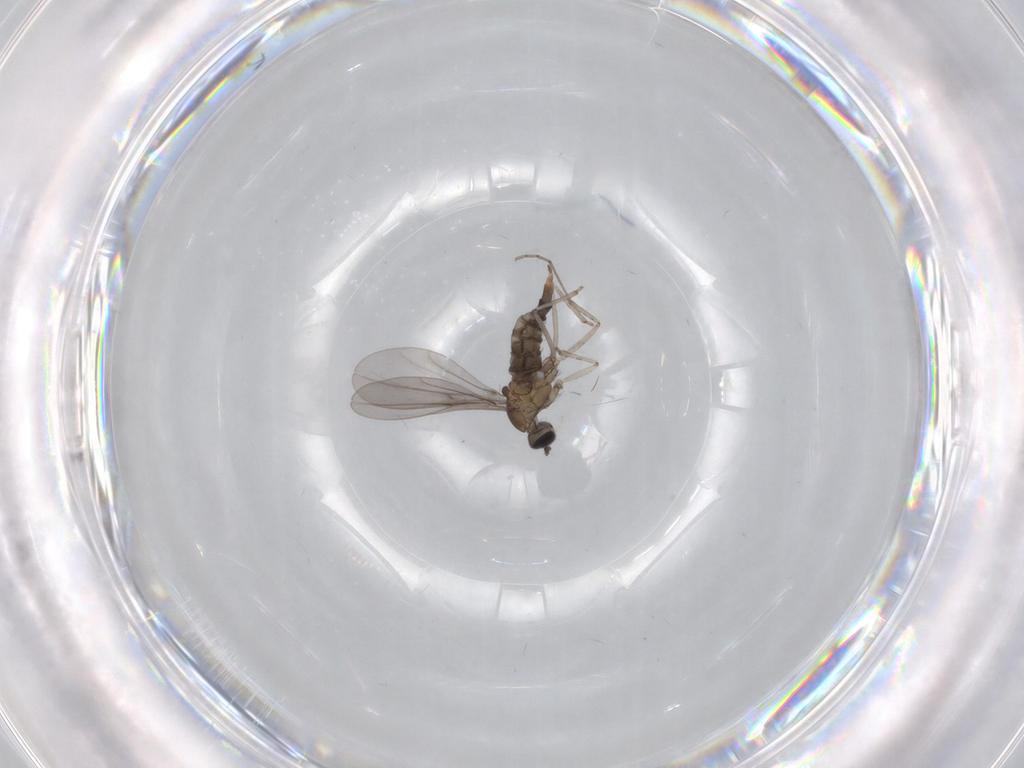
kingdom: Animalia
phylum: Arthropoda
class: Insecta
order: Diptera
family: Cecidomyiidae
